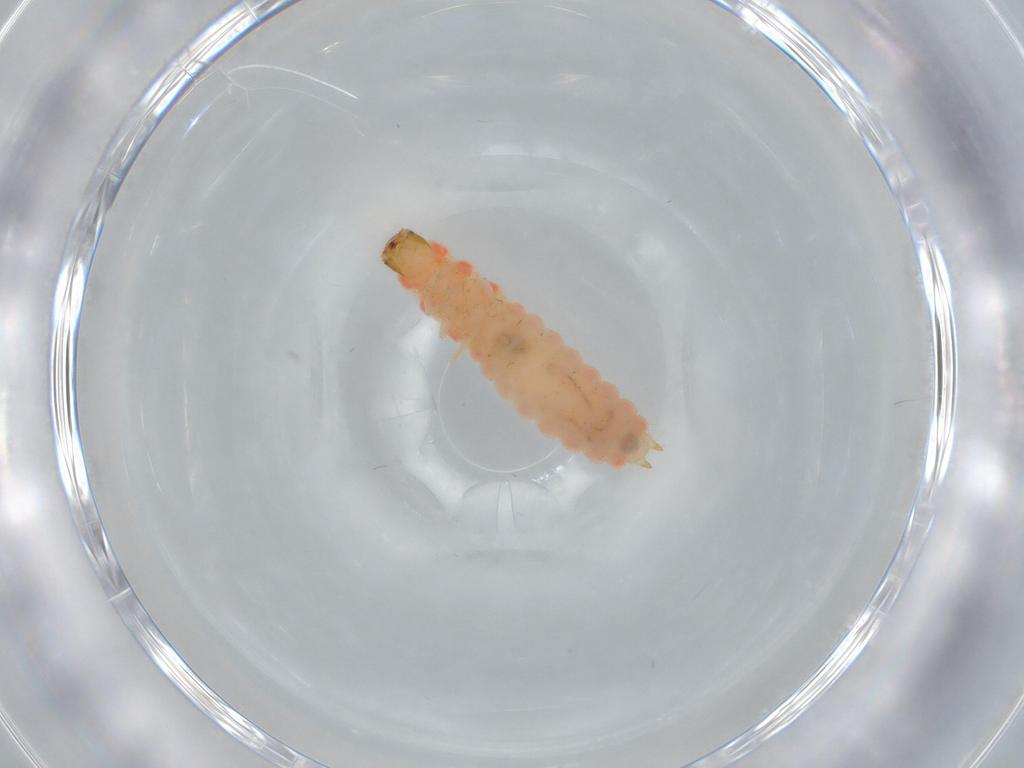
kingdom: Animalia
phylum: Arthropoda
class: Insecta
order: Coleoptera
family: Melyridae
